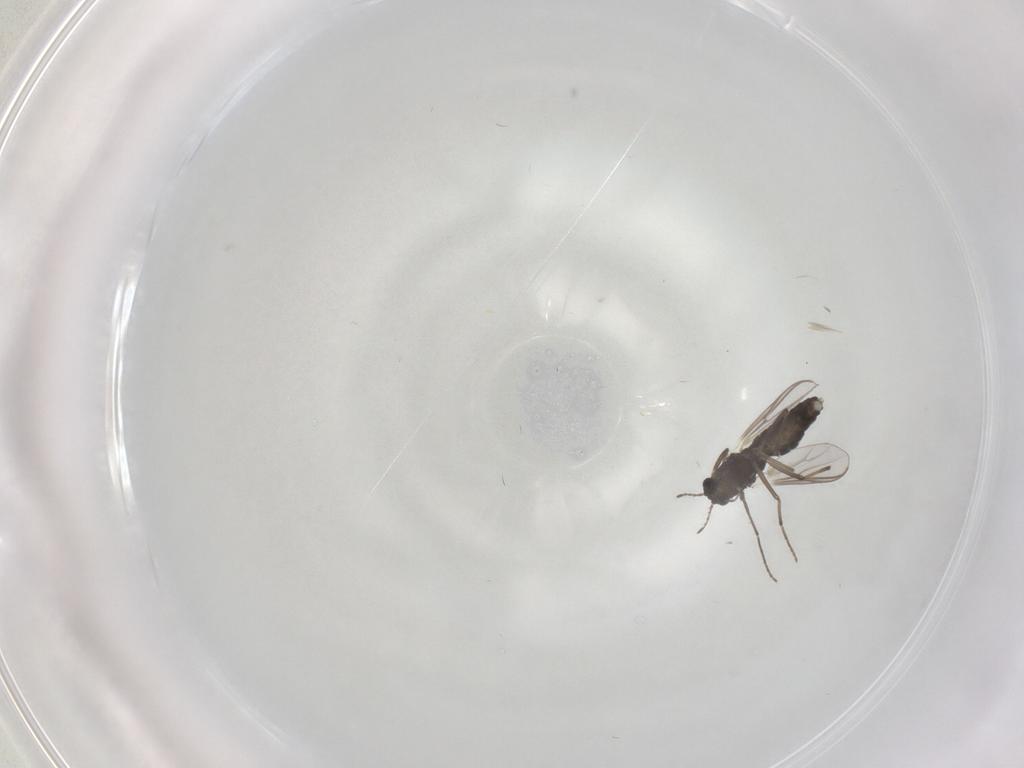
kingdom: Animalia
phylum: Arthropoda
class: Insecta
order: Diptera
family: Chironomidae
